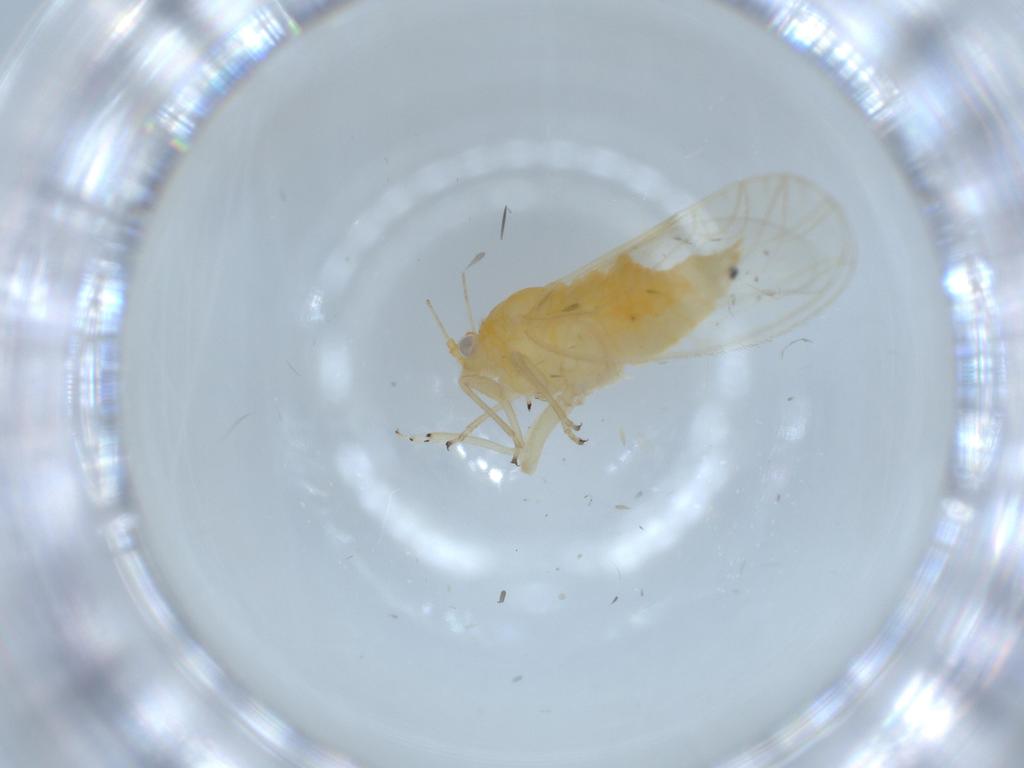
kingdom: Animalia
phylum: Arthropoda
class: Insecta
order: Hemiptera
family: Psyllidae
